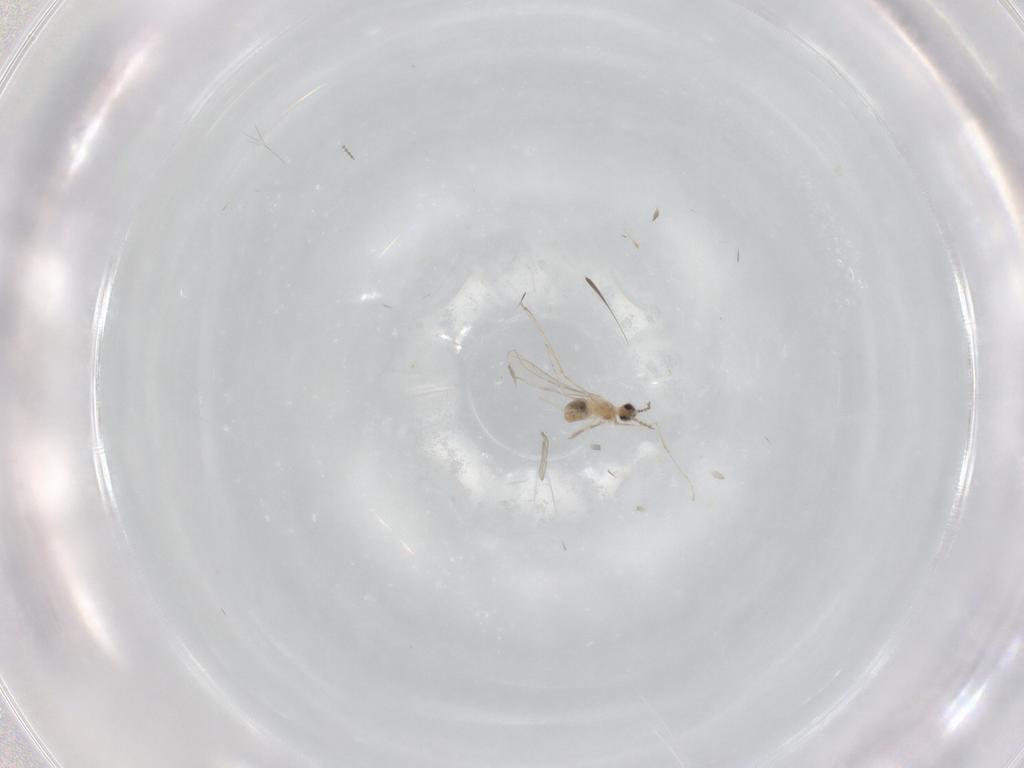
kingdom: Animalia
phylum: Arthropoda
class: Insecta
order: Diptera
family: Cecidomyiidae
